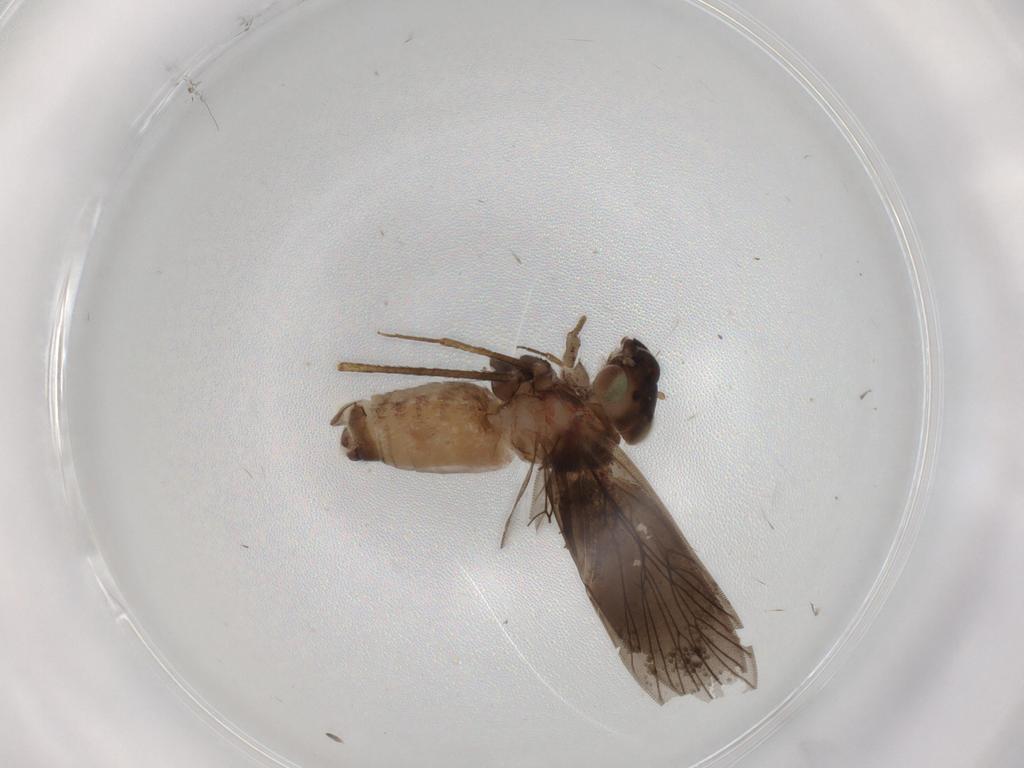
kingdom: Animalia
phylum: Arthropoda
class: Insecta
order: Psocodea
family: Lepidopsocidae
